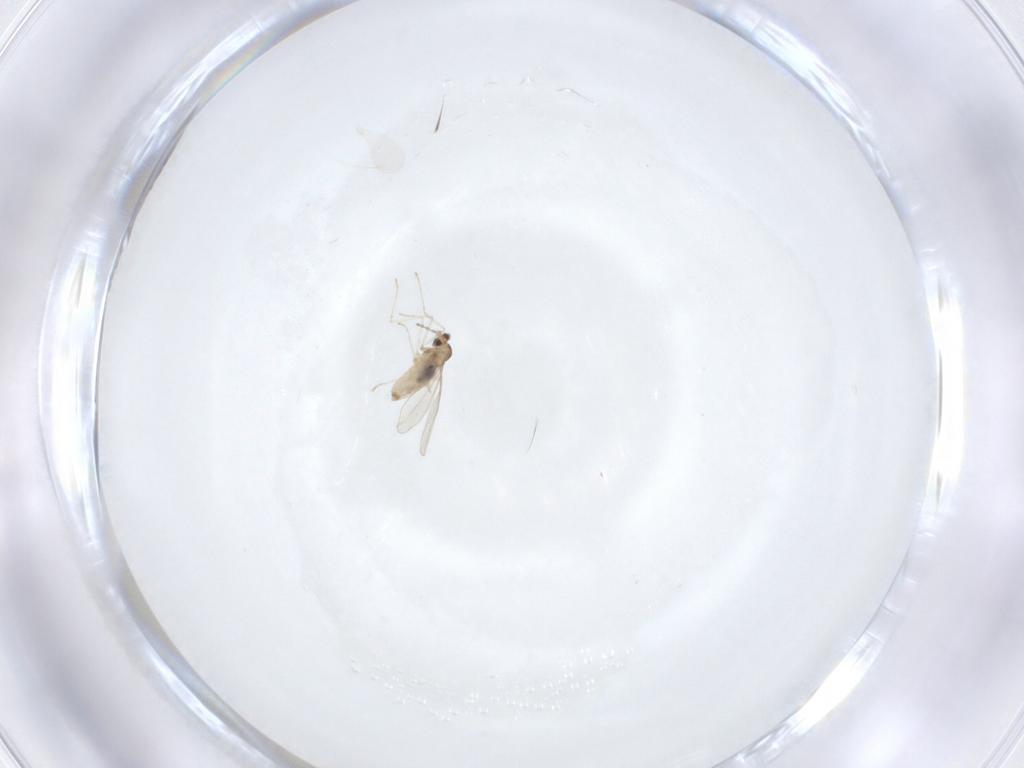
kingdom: Animalia
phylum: Arthropoda
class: Insecta
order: Diptera
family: Cecidomyiidae
